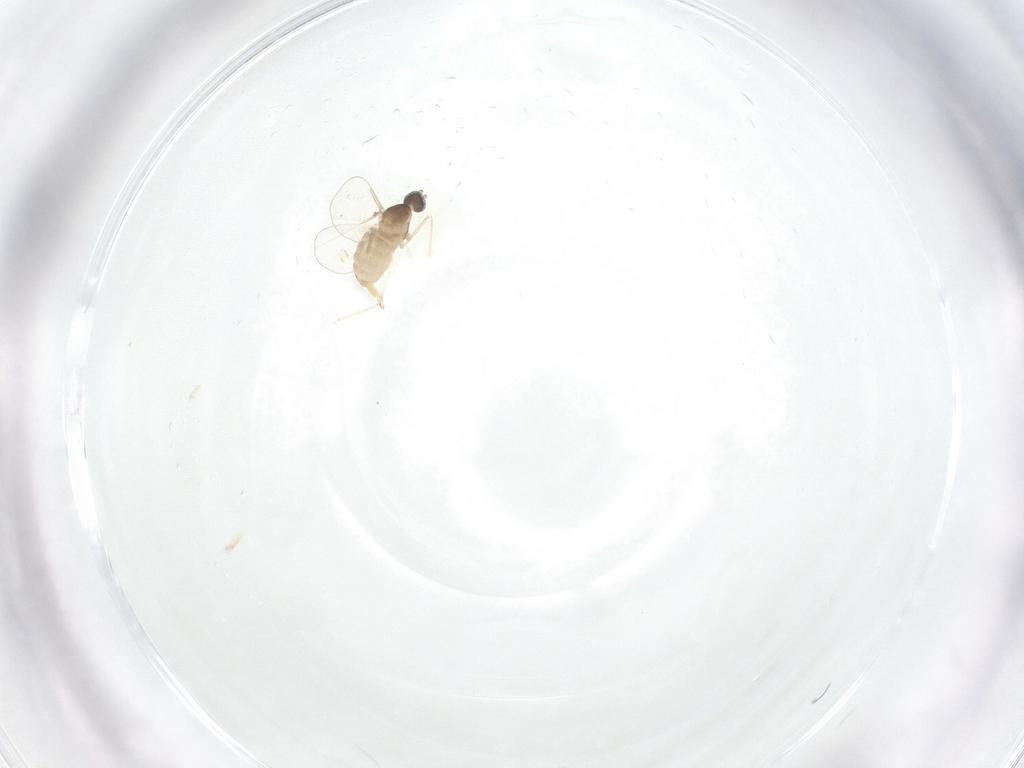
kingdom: Animalia
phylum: Arthropoda
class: Insecta
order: Diptera
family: Cecidomyiidae
